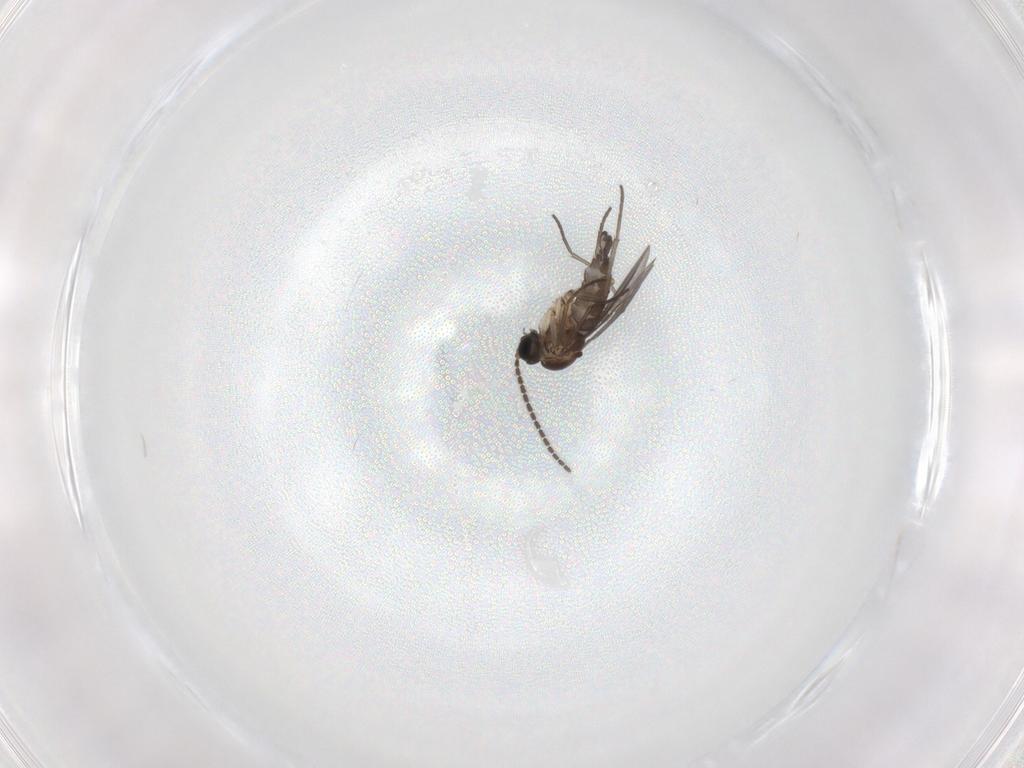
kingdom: Animalia
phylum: Arthropoda
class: Insecta
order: Diptera
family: Sciaridae
